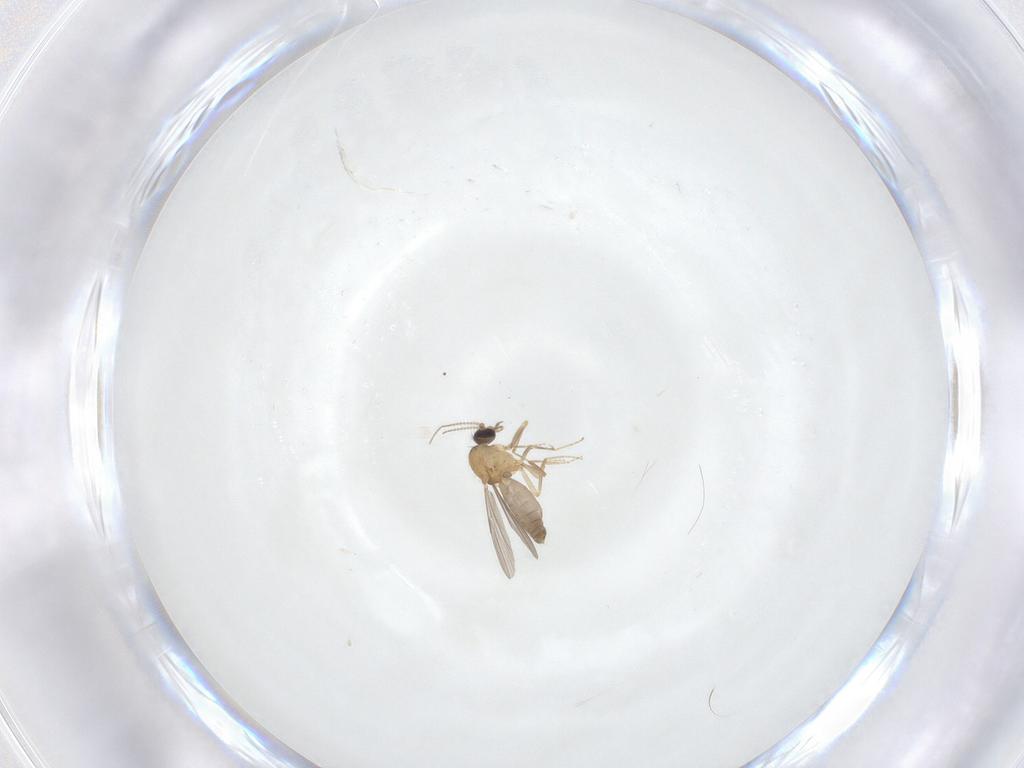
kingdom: Animalia
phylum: Arthropoda
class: Insecta
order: Diptera
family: Ceratopogonidae
